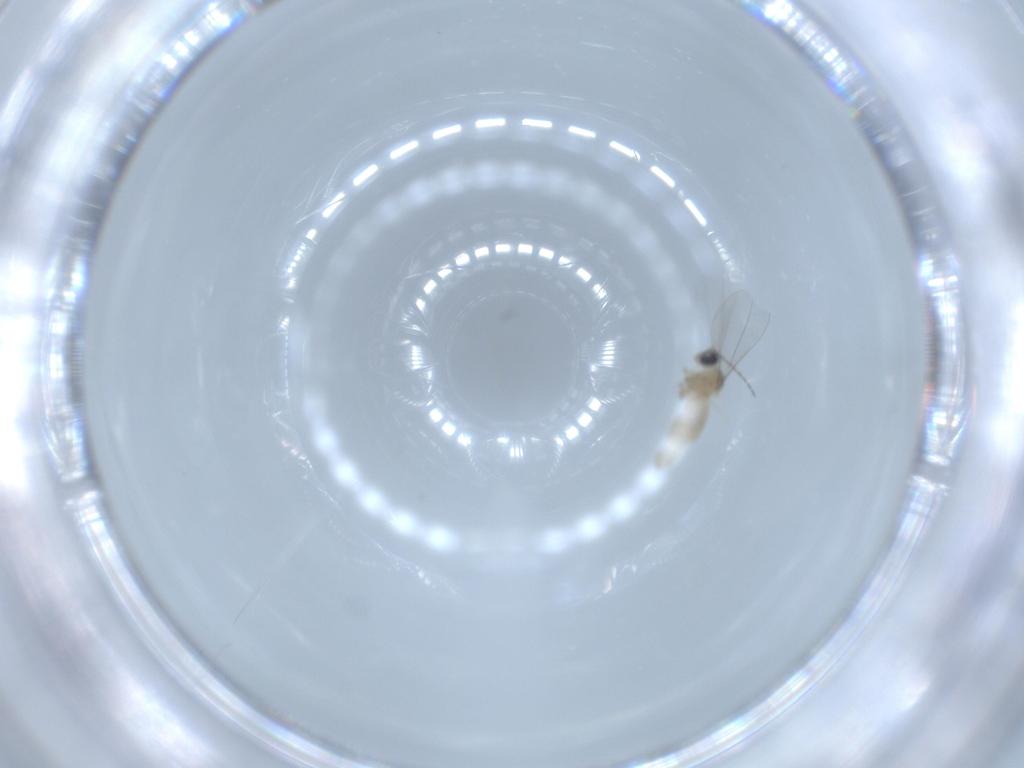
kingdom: Animalia
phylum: Arthropoda
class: Insecta
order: Diptera
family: Cecidomyiidae
